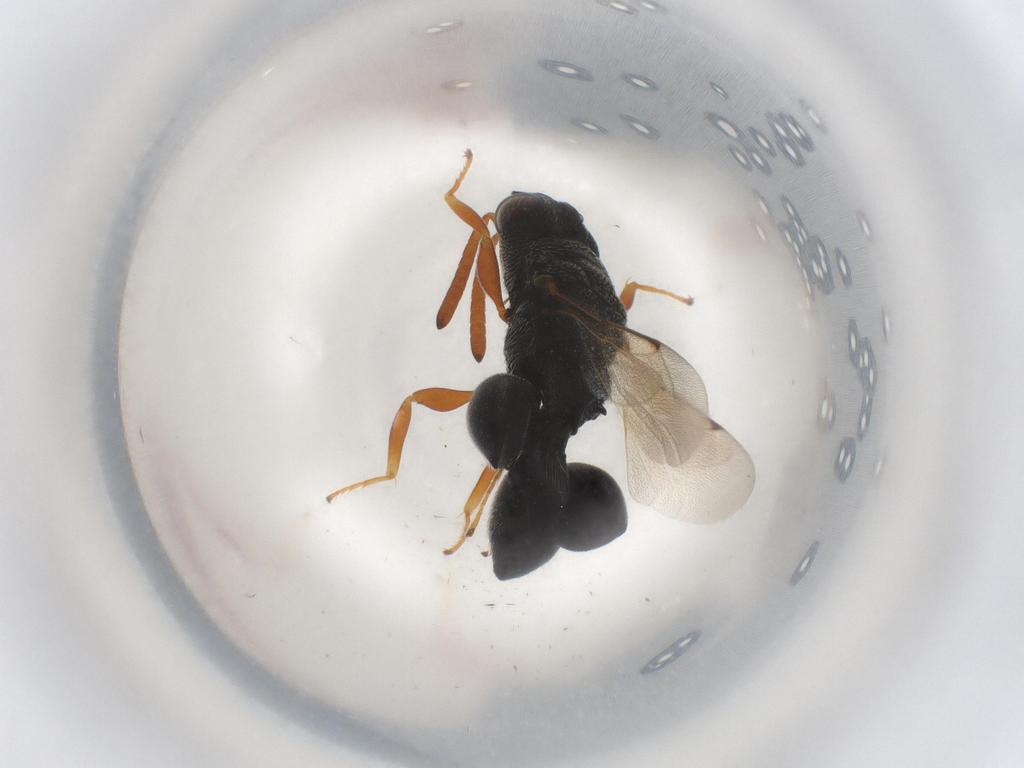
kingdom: Animalia
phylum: Arthropoda
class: Insecta
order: Hymenoptera
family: Chalcididae
